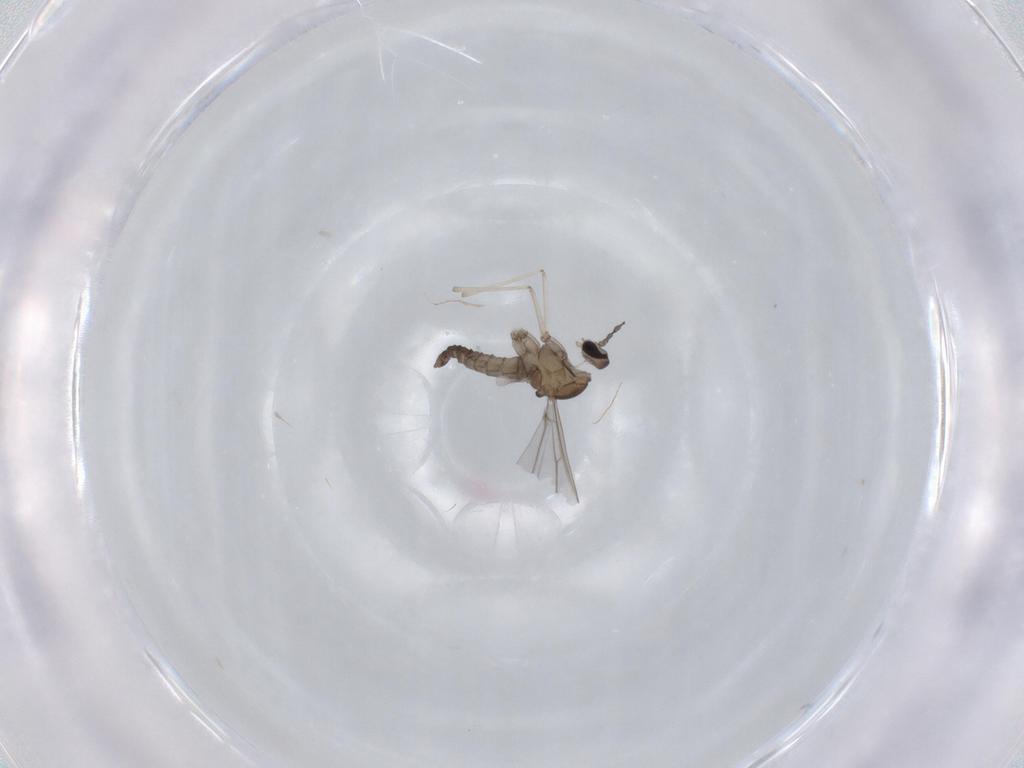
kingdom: Animalia
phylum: Arthropoda
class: Insecta
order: Diptera
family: Cecidomyiidae
